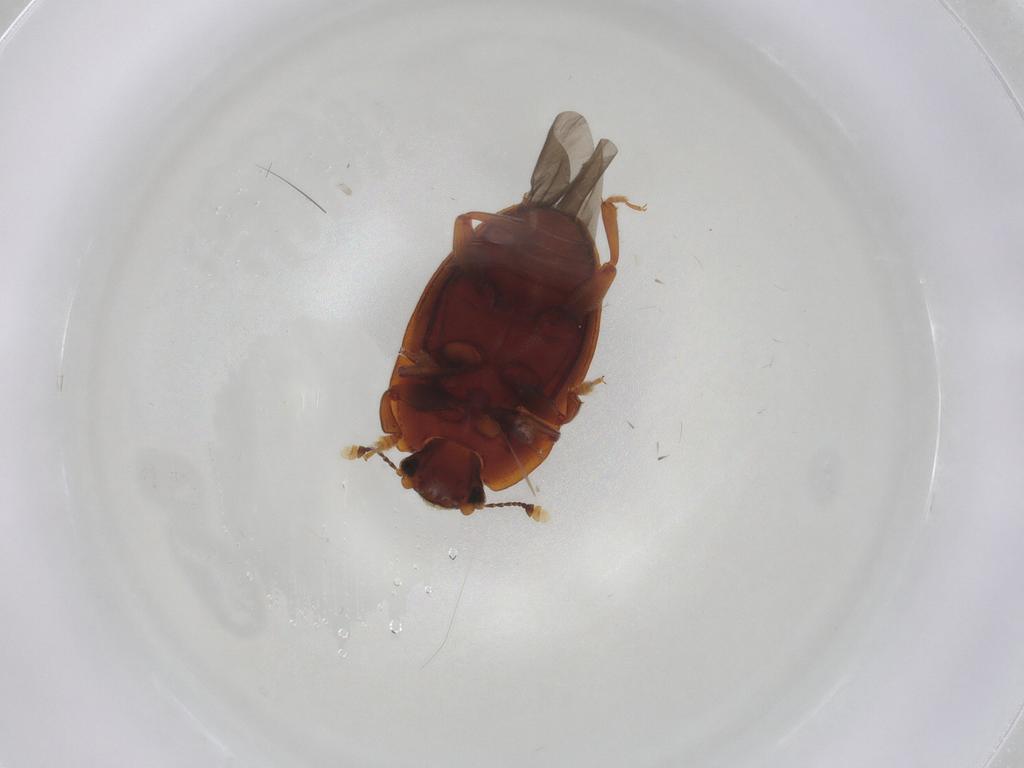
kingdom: Animalia
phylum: Arthropoda
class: Insecta
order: Coleoptera
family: Nitidulidae
